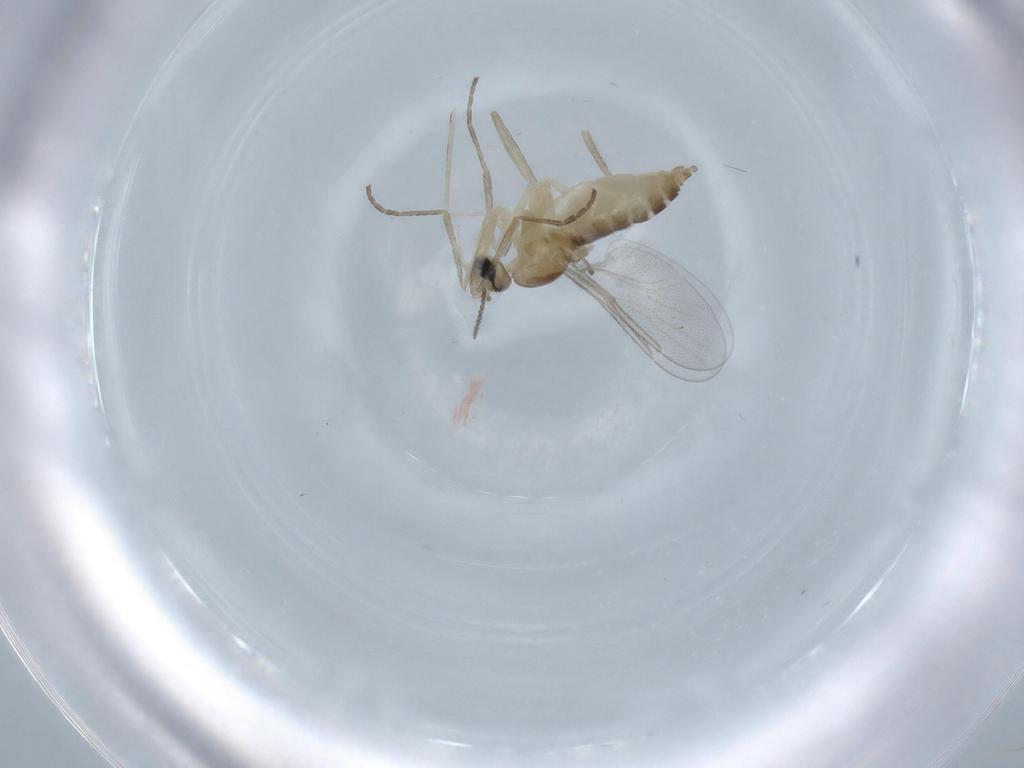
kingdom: Animalia
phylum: Arthropoda
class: Insecta
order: Diptera
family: Cecidomyiidae
